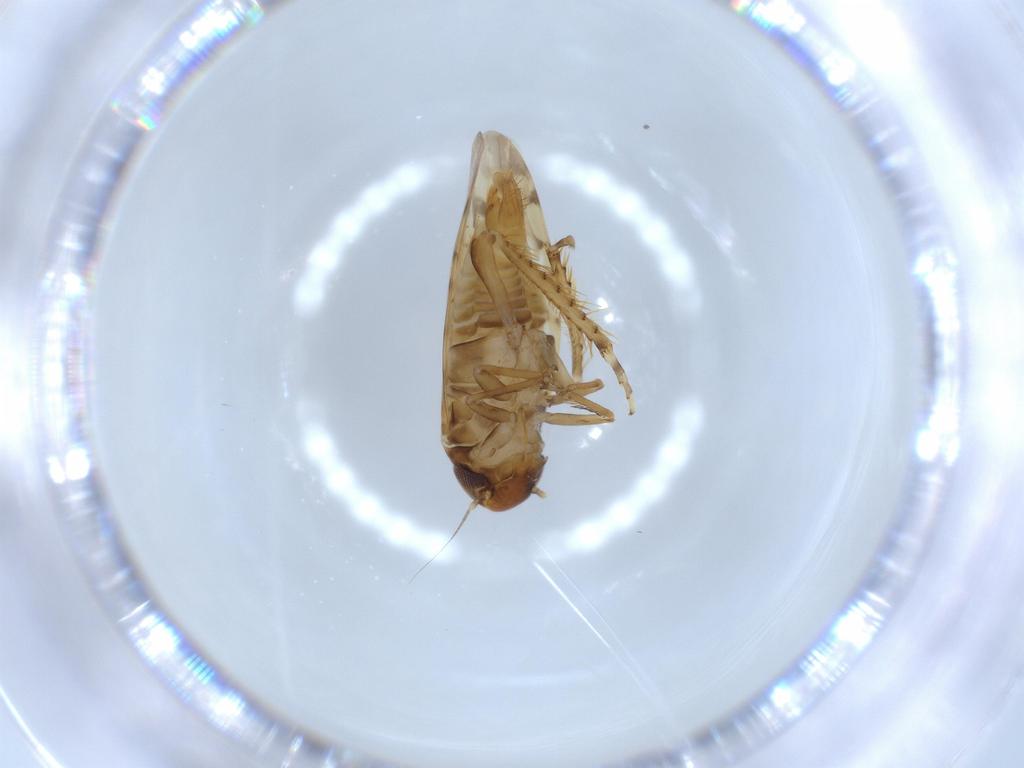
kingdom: Animalia
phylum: Arthropoda
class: Insecta
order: Hemiptera
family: Cicadellidae
